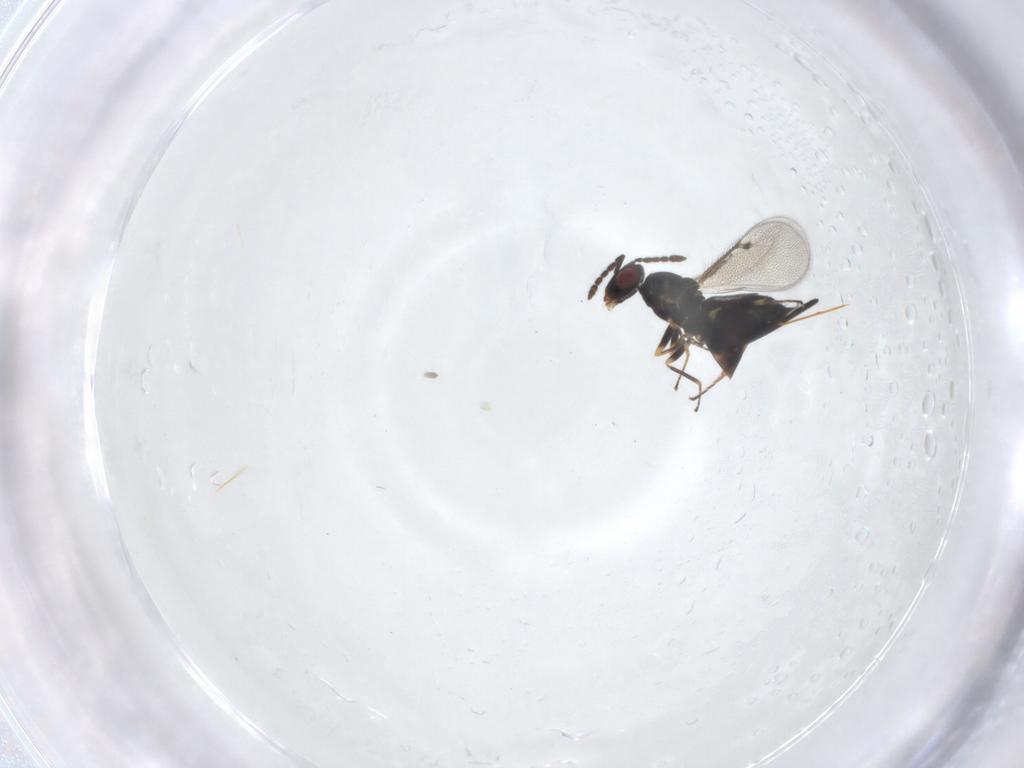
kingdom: Animalia
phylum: Arthropoda
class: Insecta
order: Hymenoptera
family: Eulophidae
